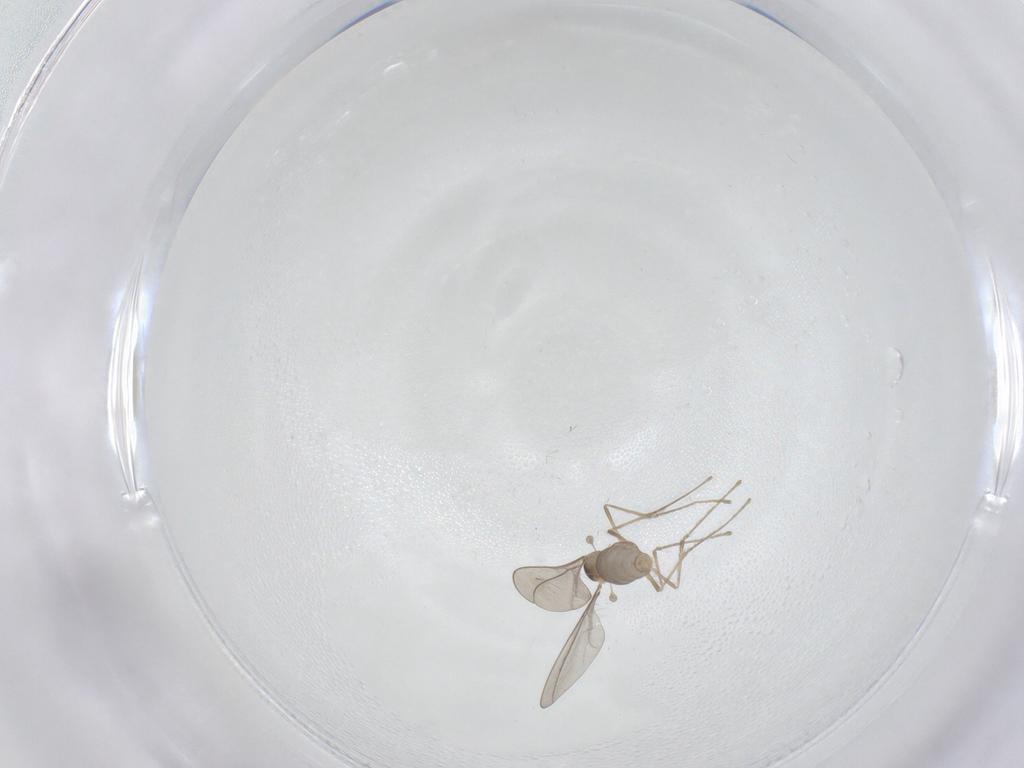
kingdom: Animalia
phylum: Arthropoda
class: Insecta
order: Diptera
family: Cecidomyiidae
